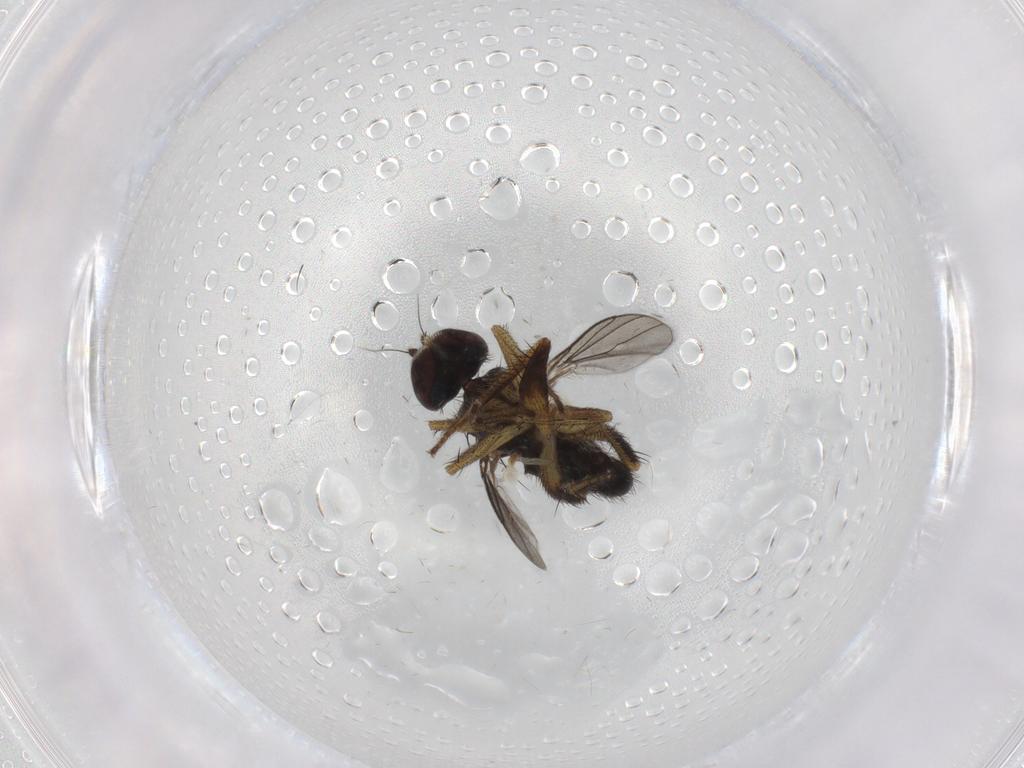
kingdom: Animalia
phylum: Arthropoda
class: Insecta
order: Diptera
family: Dolichopodidae
